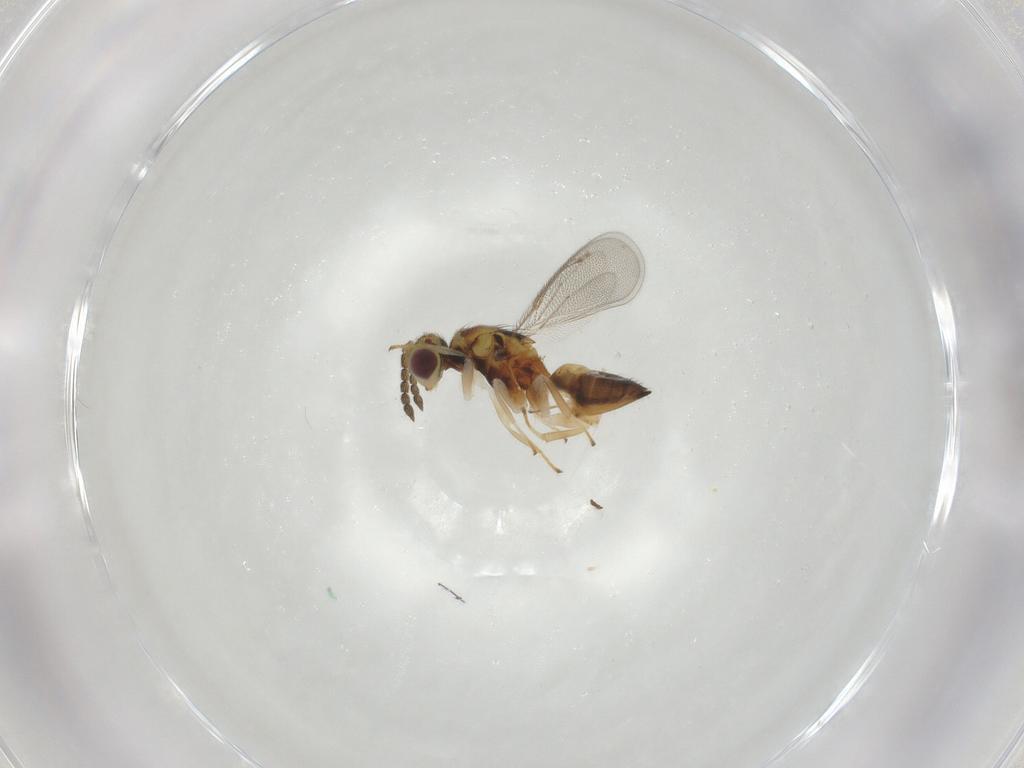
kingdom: Animalia
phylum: Arthropoda
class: Insecta
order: Hymenoptera
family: Eulophidae
